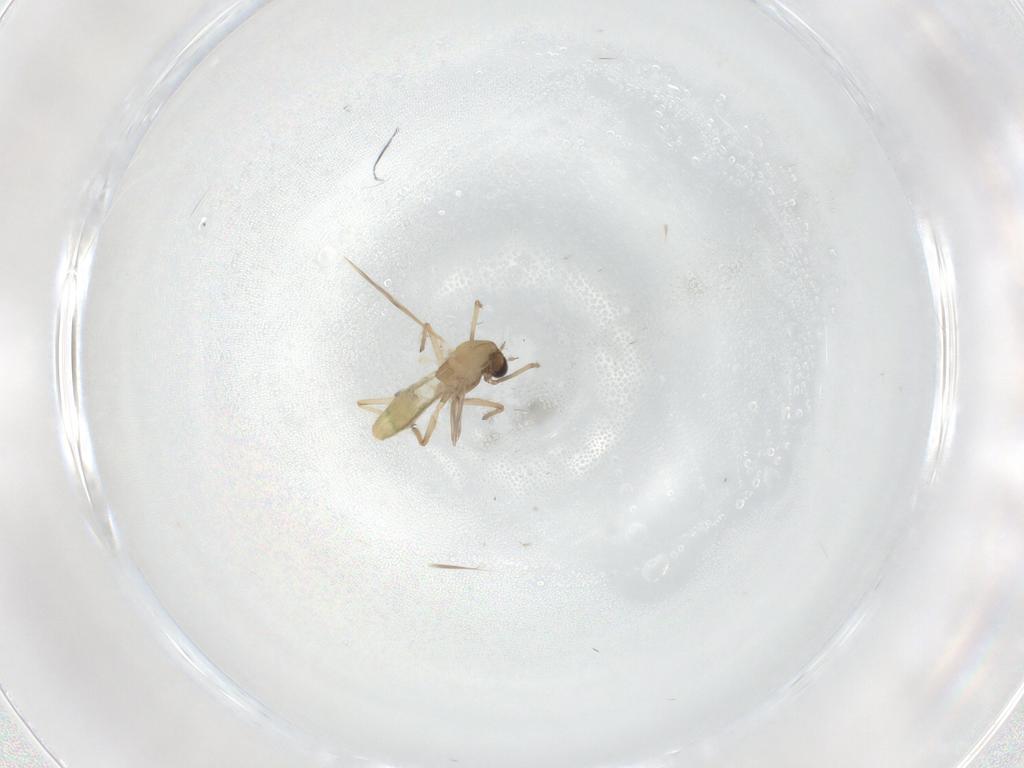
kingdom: Animalia
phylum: Arthropoda
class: Insecta
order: Diptera
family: Chironomidae
